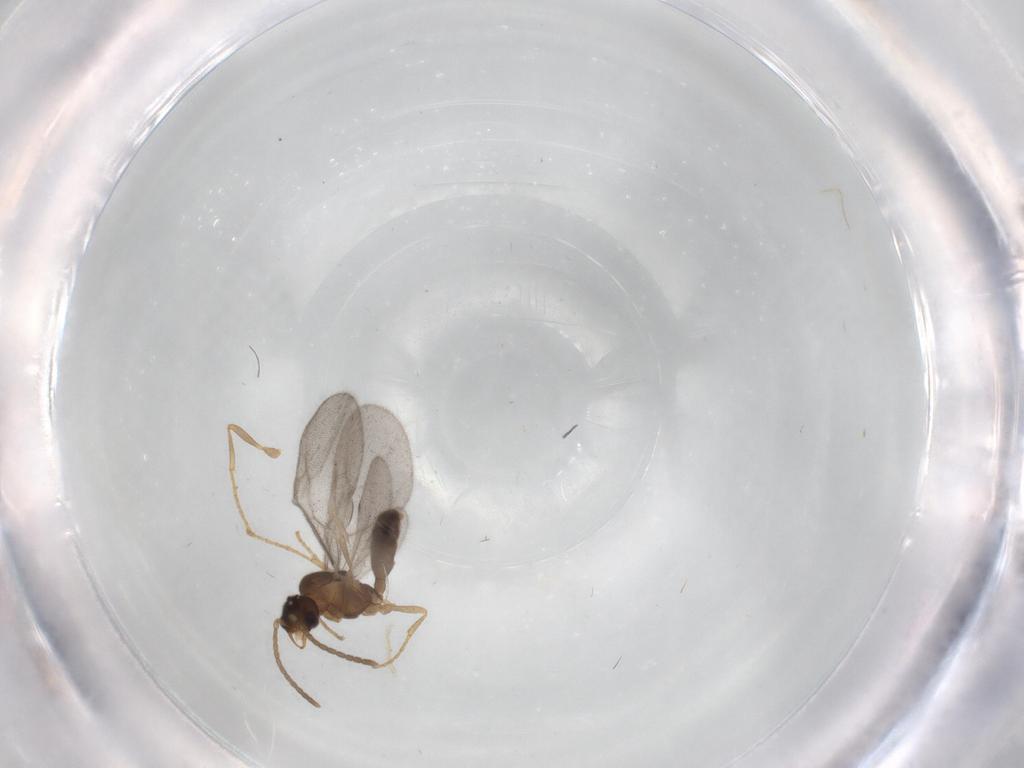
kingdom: Animalia
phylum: Arthropoda
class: Insecta
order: Hymenoptera
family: Formicidae
